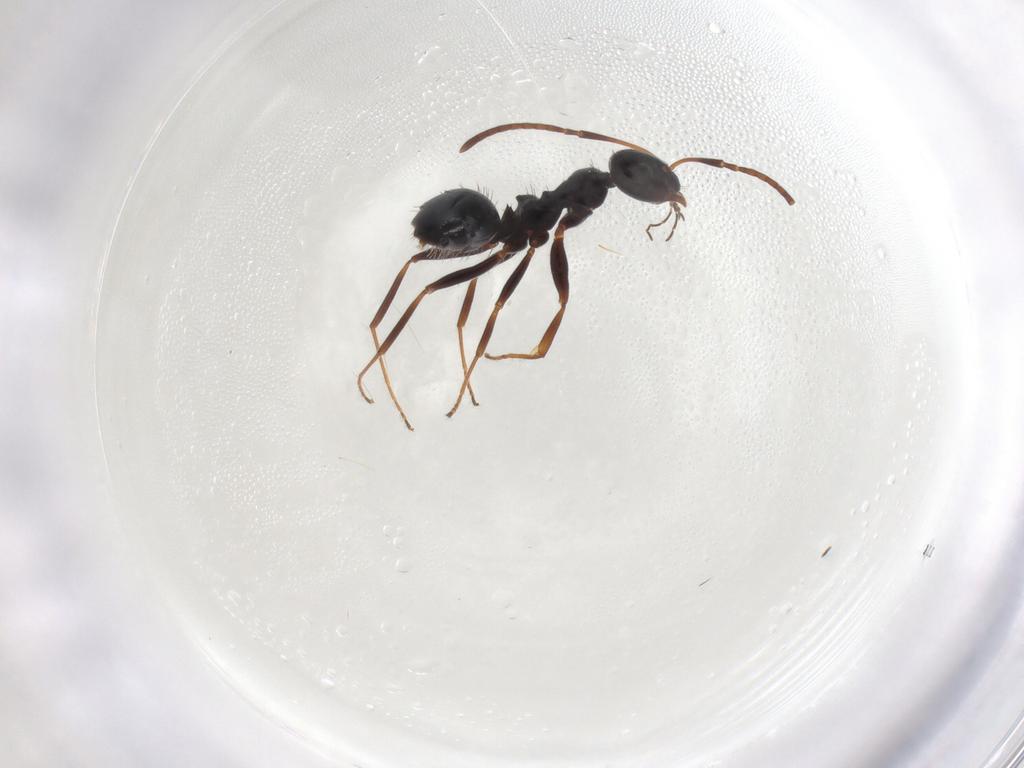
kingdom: Animalia
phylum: Arthropoda
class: Insecta
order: Hymenoptera
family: Formicidae
